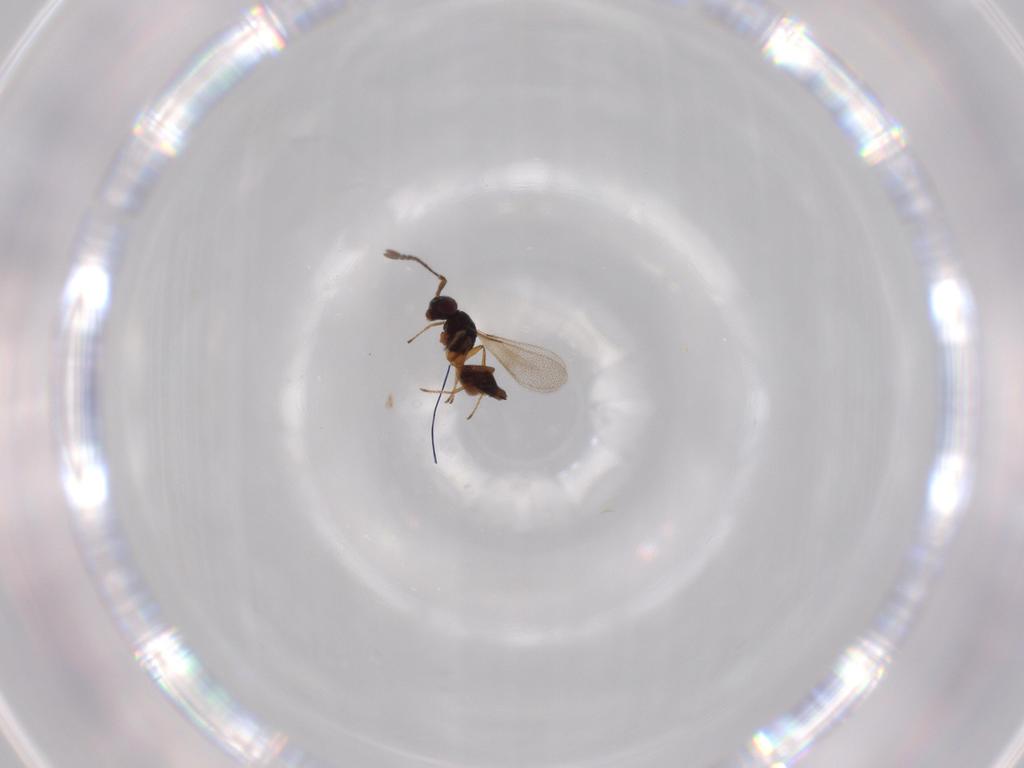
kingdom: Animalia
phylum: Arthropoda
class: Insecta
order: Hymenoptera
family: Mymaridae
